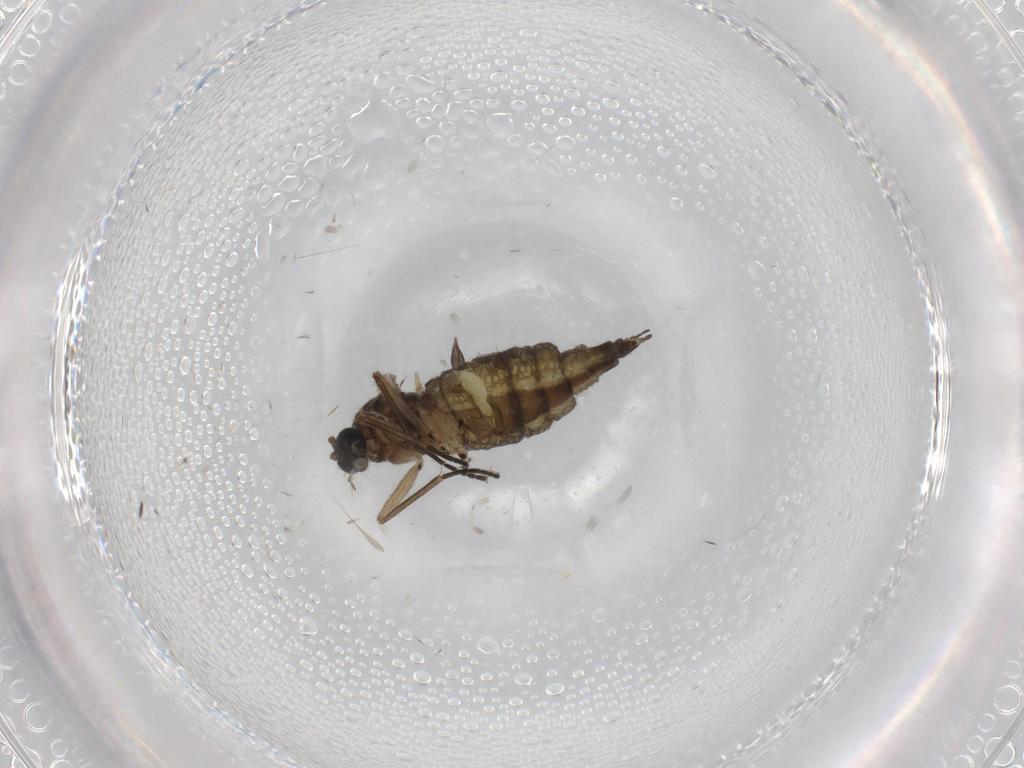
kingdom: Animalia
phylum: Arthropoda
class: Insecta
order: Diptera
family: Sciaridae
